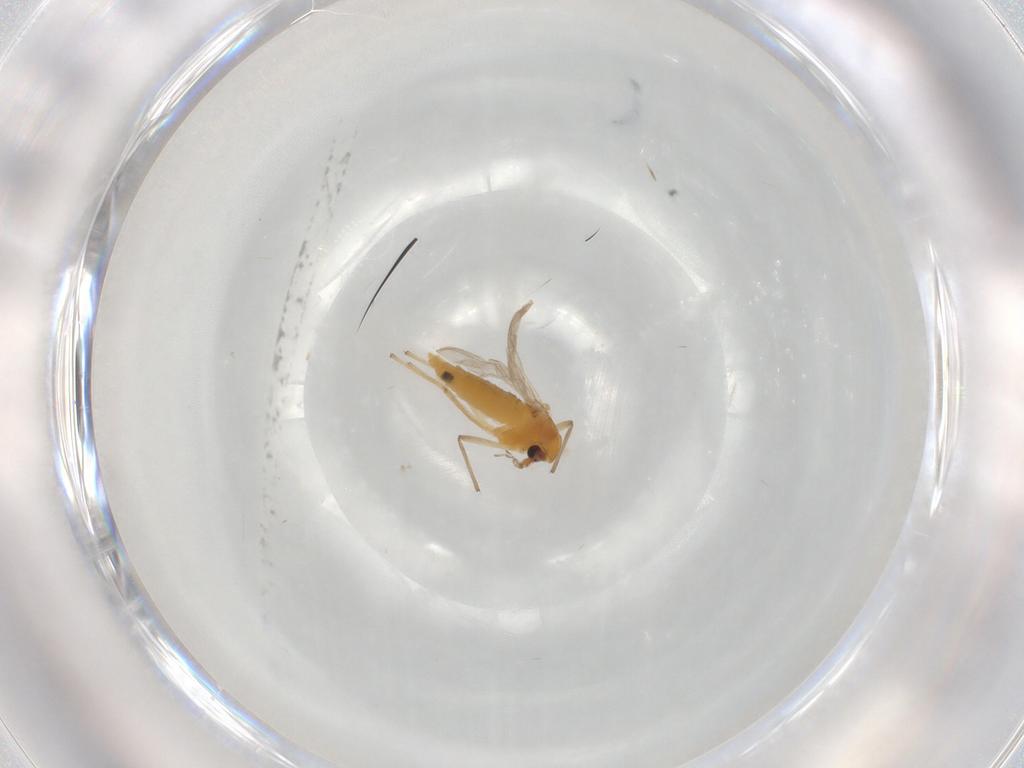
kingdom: Animalia
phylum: Arthropoda
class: Insecta
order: Diptera
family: Chironomidae
